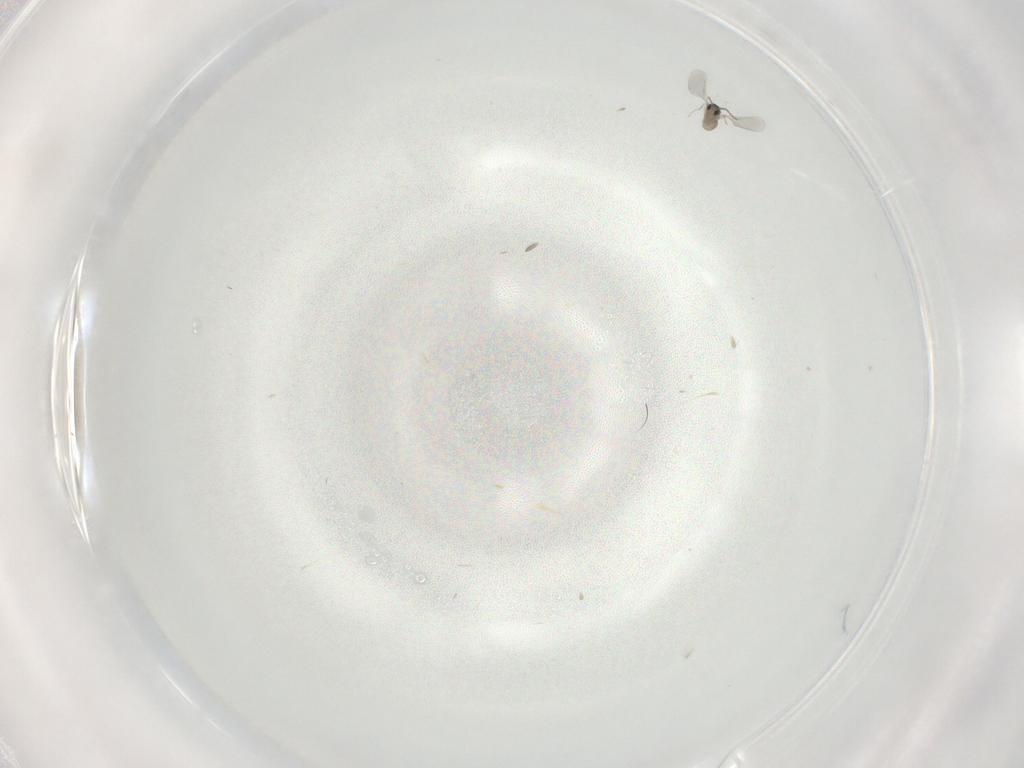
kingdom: Animalia
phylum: Arthropoda
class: Insecta
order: Diptera
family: Cecidomyiidae
